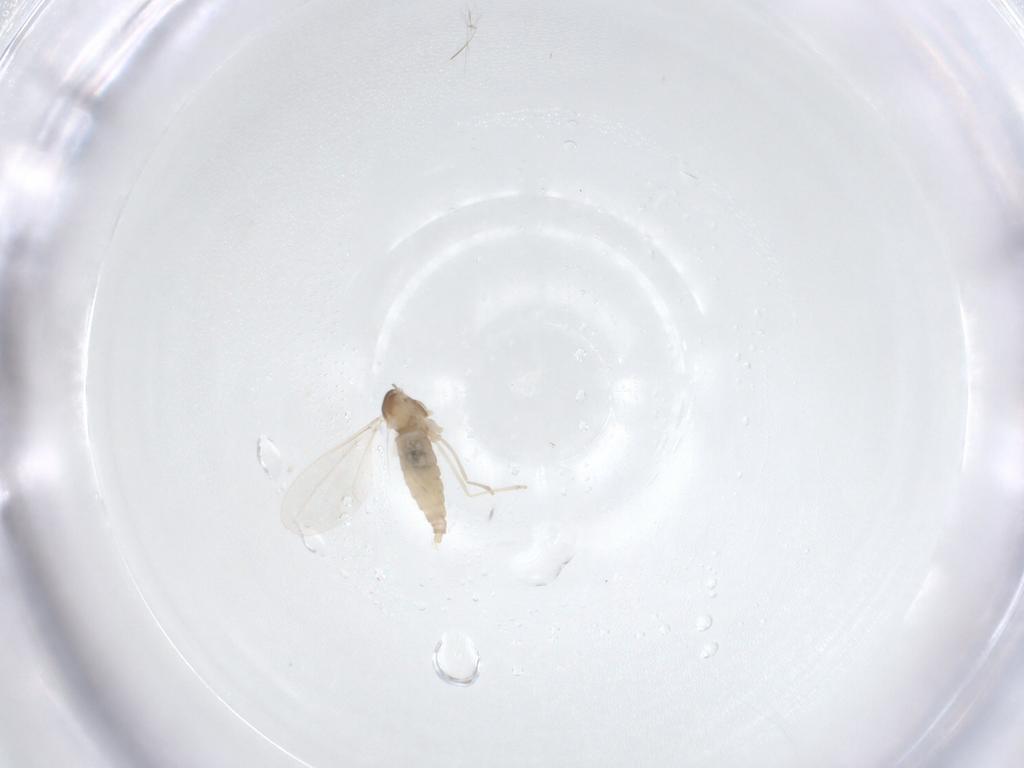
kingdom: Animalia
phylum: Arthropoda
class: Insecta
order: Diptera
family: Cecidomyiidae
